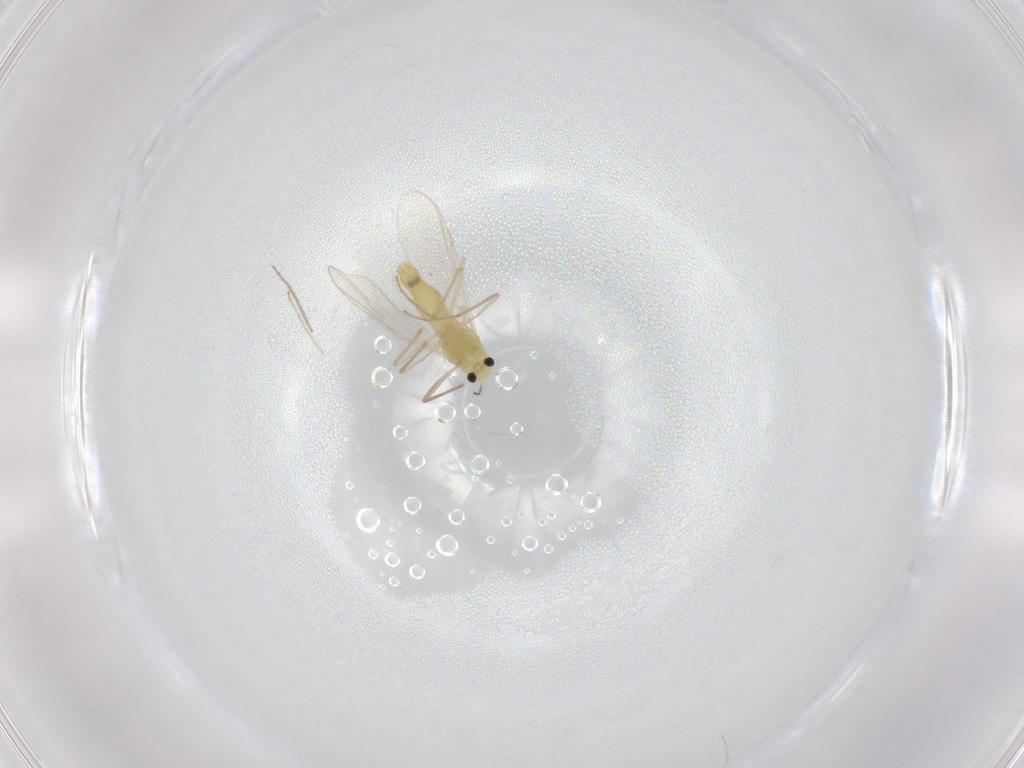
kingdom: Animalia
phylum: Arthropoda
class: Insecta
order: Diptera
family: Chironomidae
